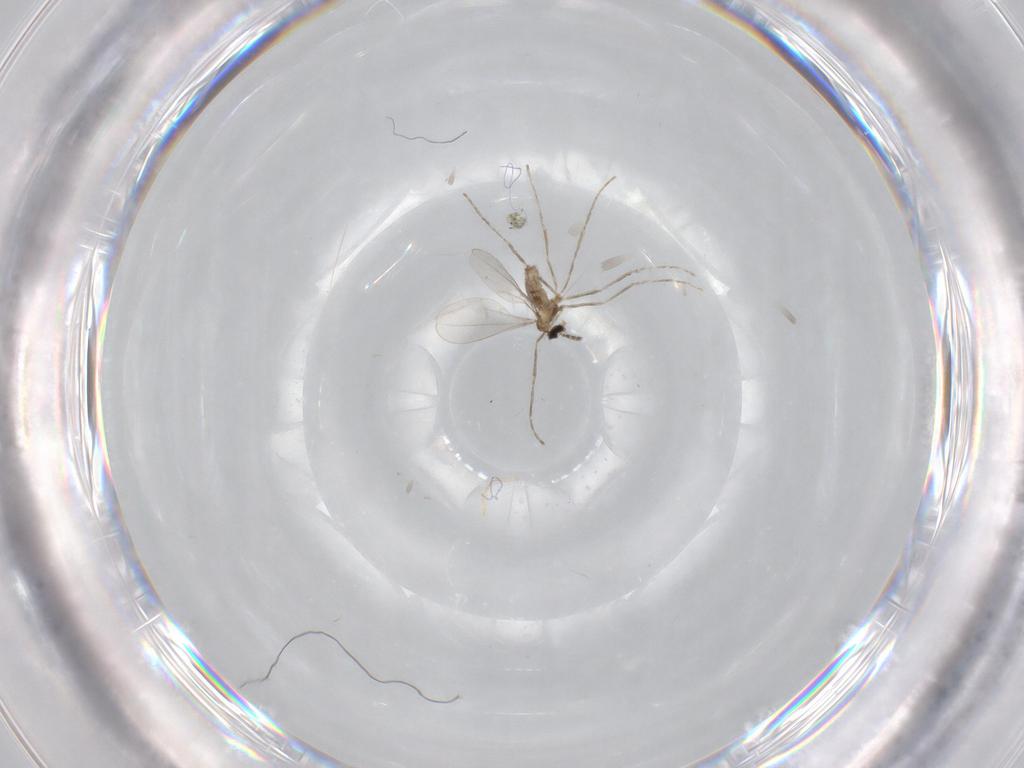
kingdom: Animalia
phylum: Arthropoda
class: Insecta
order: Diptera
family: Cecidomyiidae
